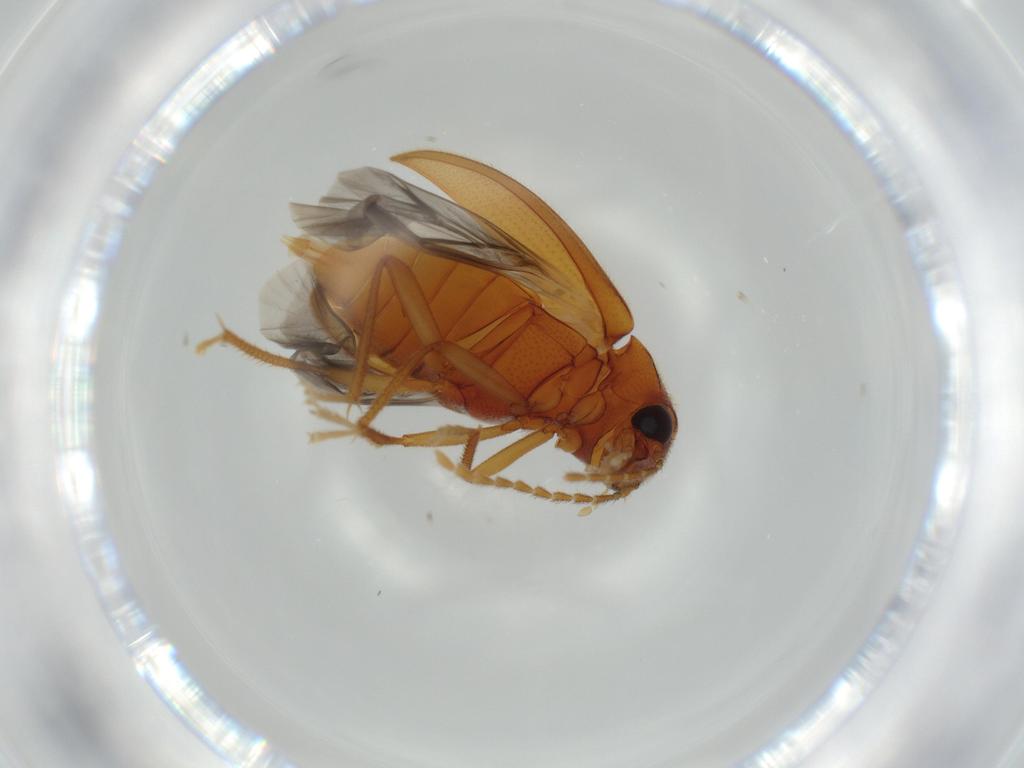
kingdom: Animalia
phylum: Arthropoda
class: Insecta
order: Coleoptera
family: Ptilodactylidae
